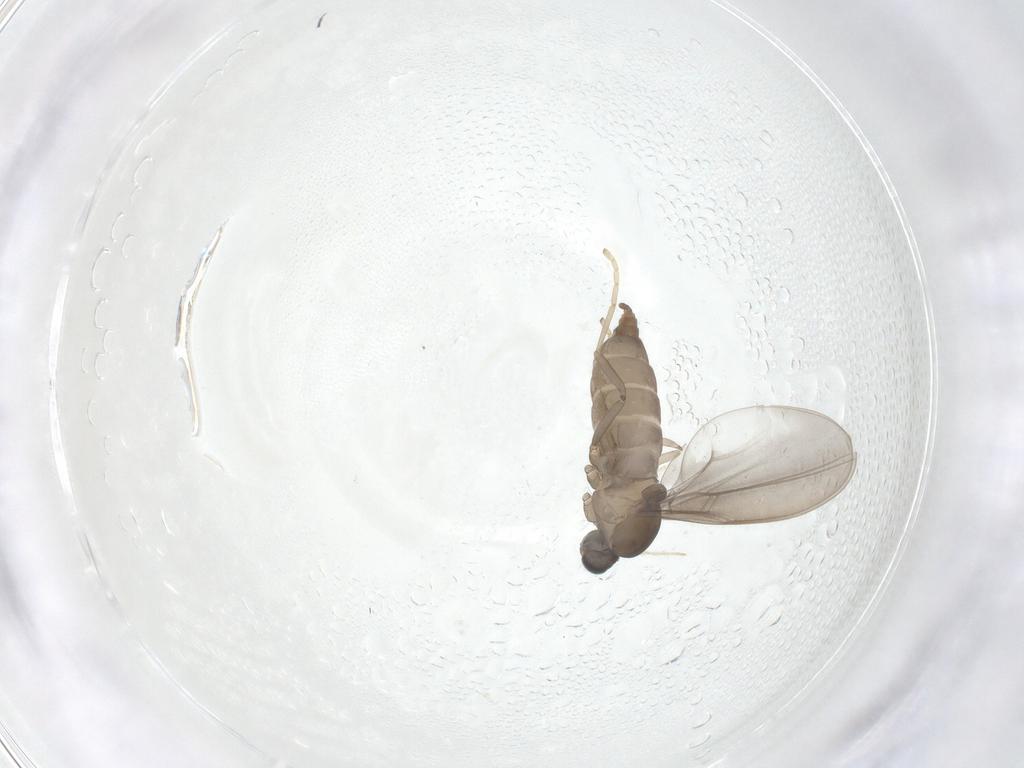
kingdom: Animalia
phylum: Arthropoda
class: Insecta
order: Diptera
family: Cecidomyiidae
